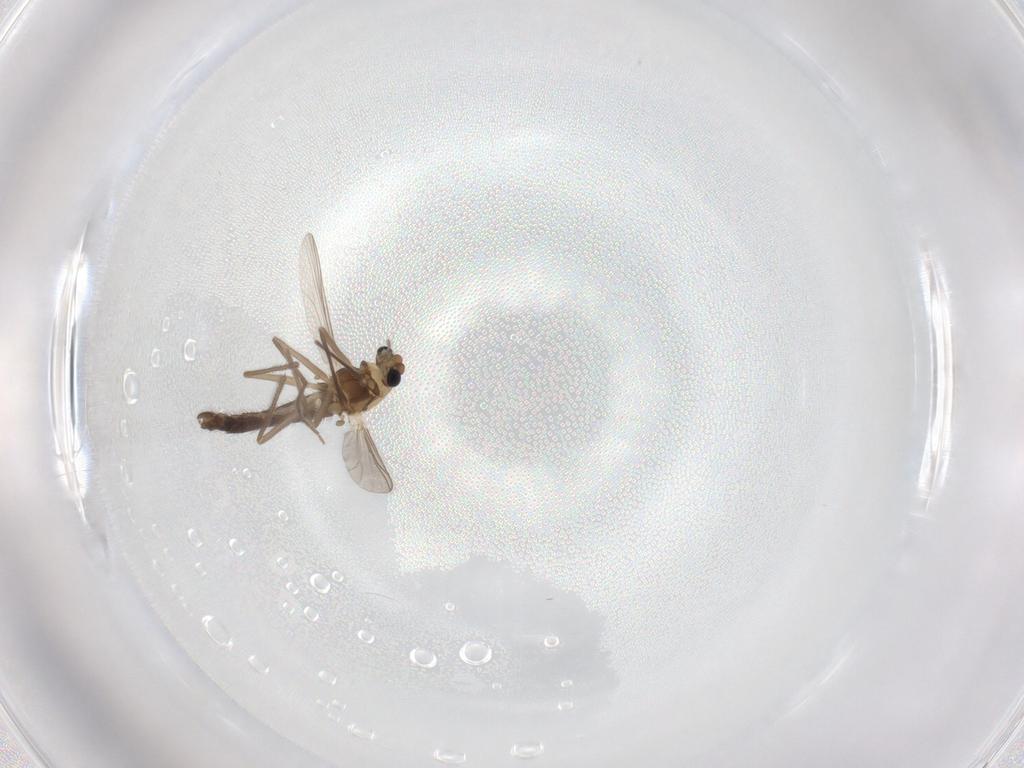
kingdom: Animalia
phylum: Arthropoda
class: Insecta
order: Diptera
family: Chironomidae
